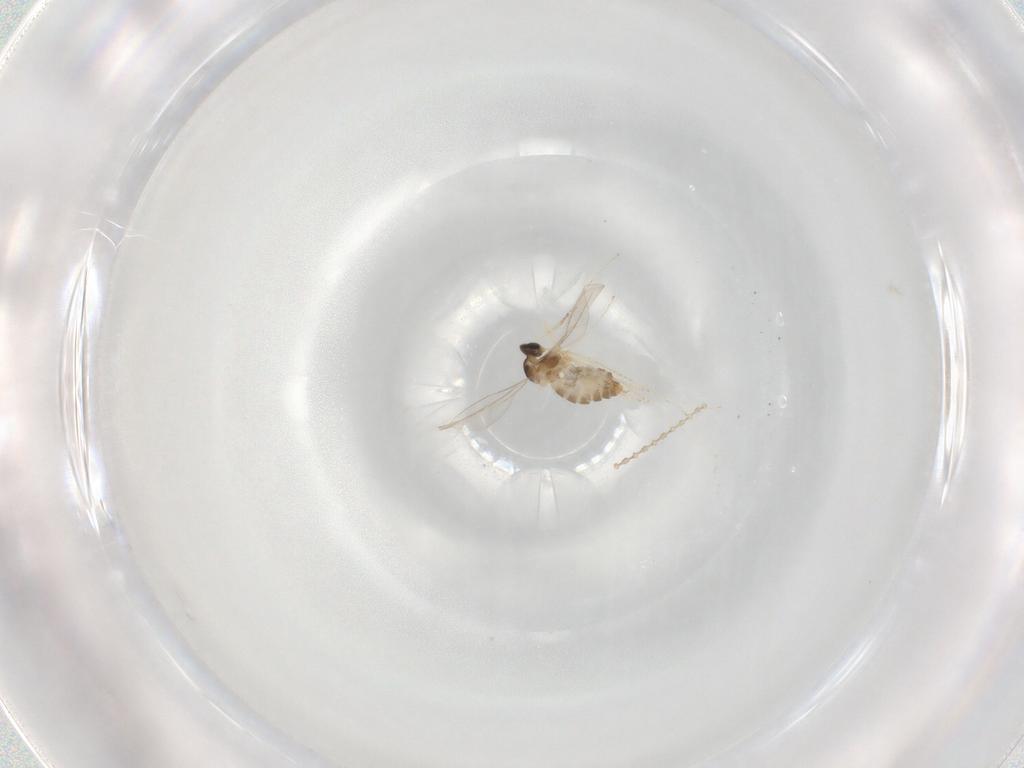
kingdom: Animalia
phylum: Arthropoda
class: Insecta
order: Diptera
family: Cecidomyiidae
